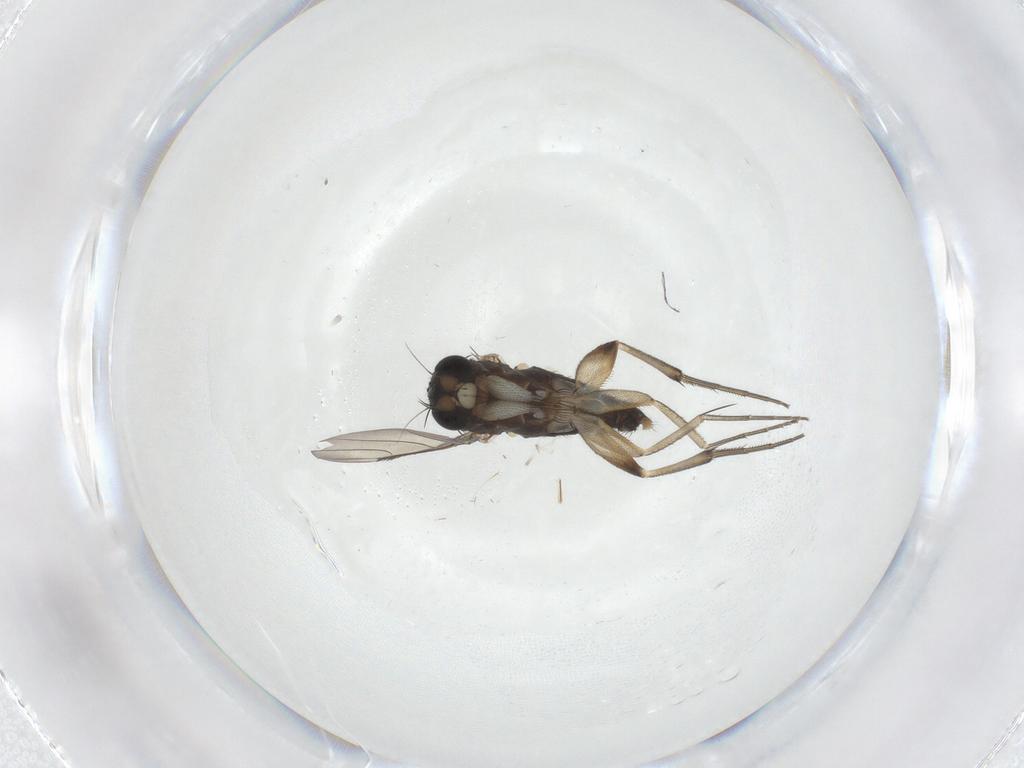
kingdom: Animalia
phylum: Arthropoda
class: Insecta
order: Diptera
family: Phoridae
